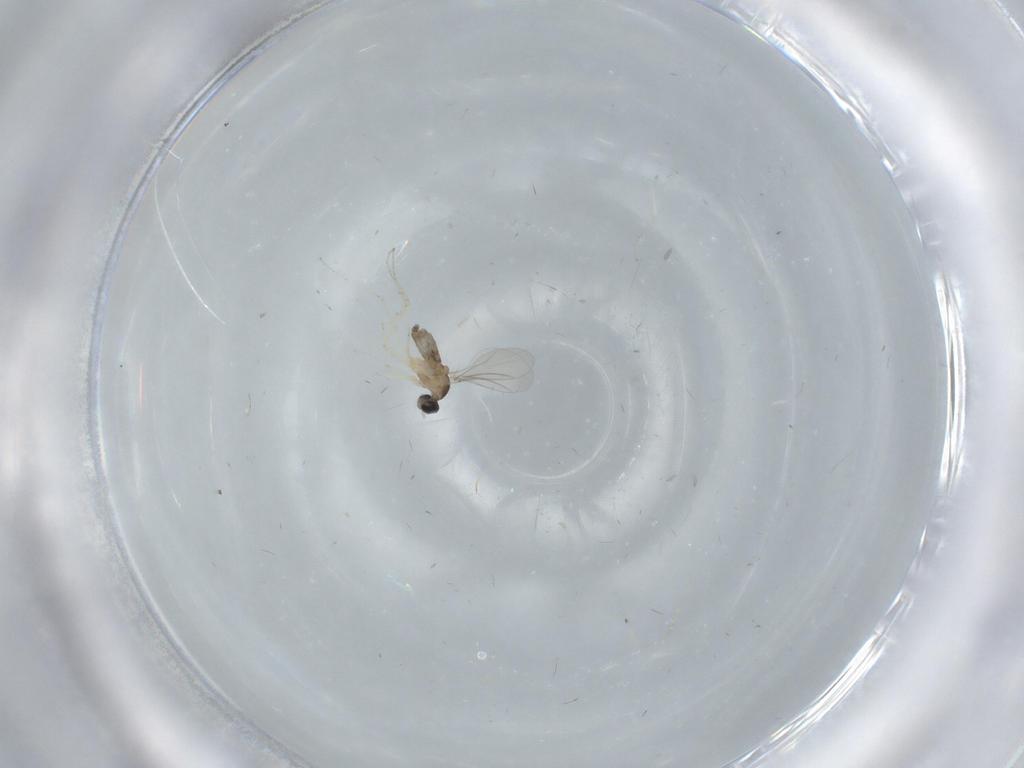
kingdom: Animalia
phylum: Arthropoda
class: Insecta
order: Diptera
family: Cecidomyiidae
